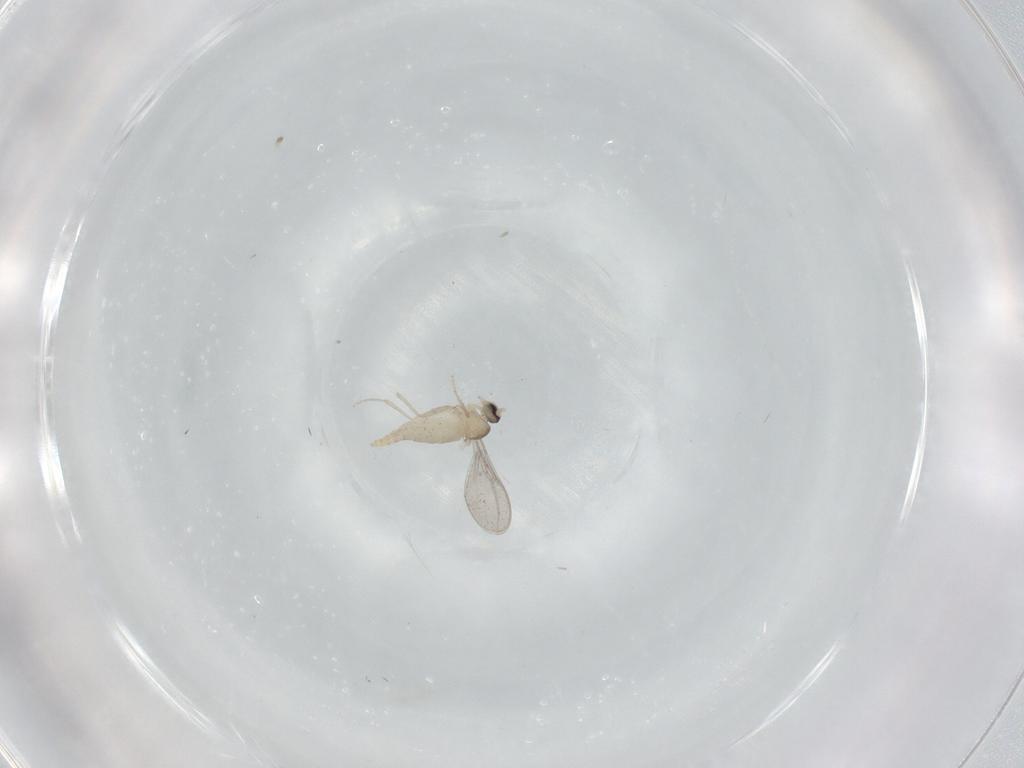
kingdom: Animalia
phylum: Arthropoda
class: Insecta
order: Diptera
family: Cecidomyiidae
